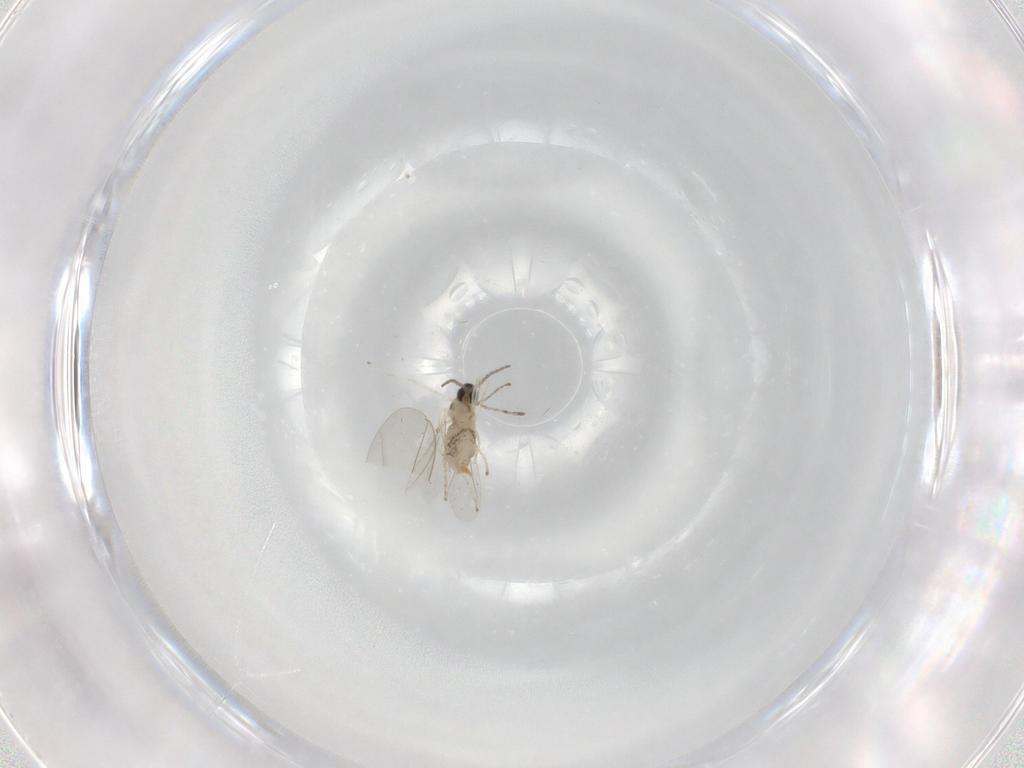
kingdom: Animalia
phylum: Arthropoda
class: Insecta
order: Diptera
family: Cecidomyiidae
